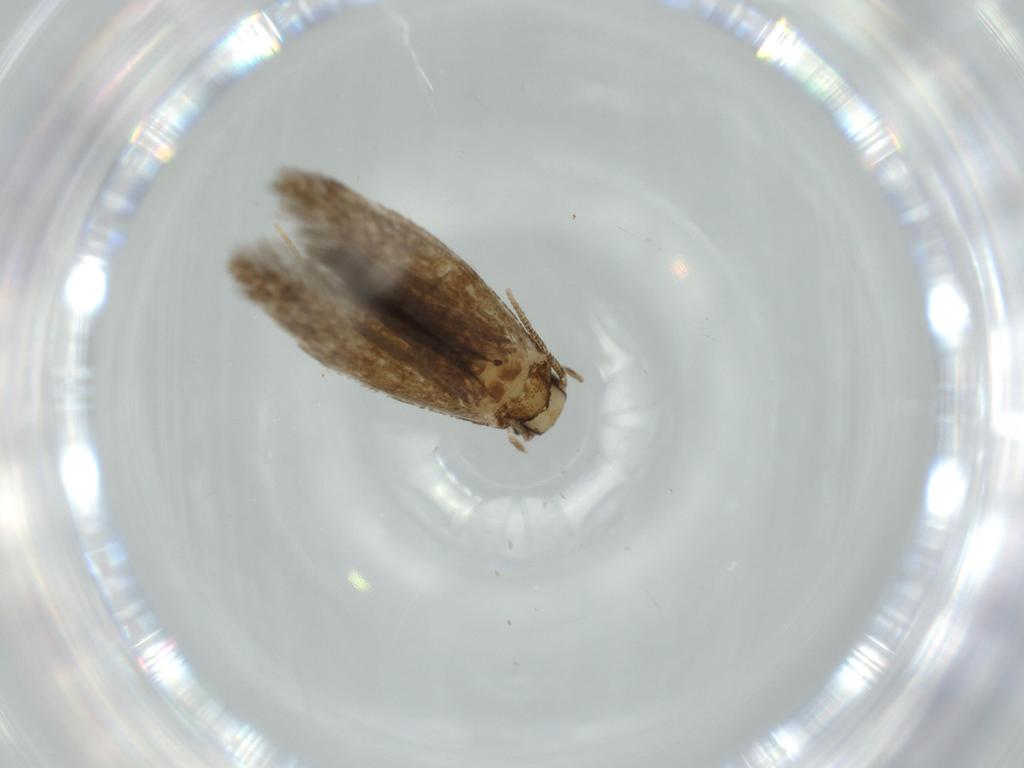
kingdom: Animalia
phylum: Arthropoda
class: Insecta
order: Lepidoptera
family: Tineidae
